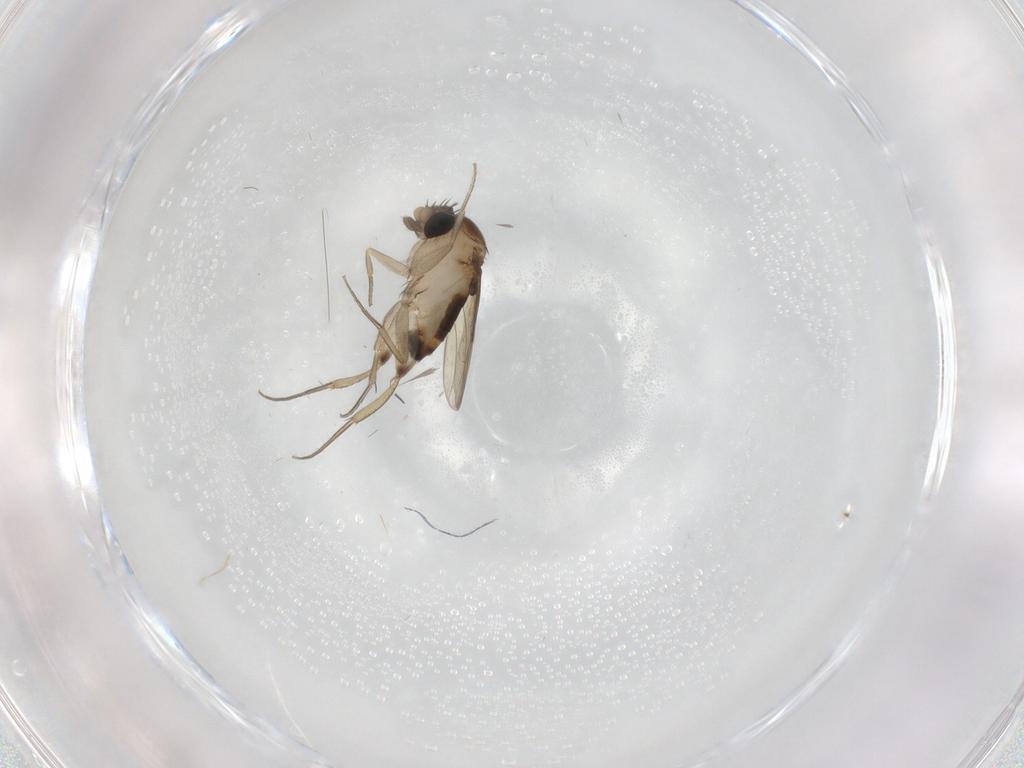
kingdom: Animalia
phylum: Arthropoda
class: Insecta
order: Diptera
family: Phoridae
